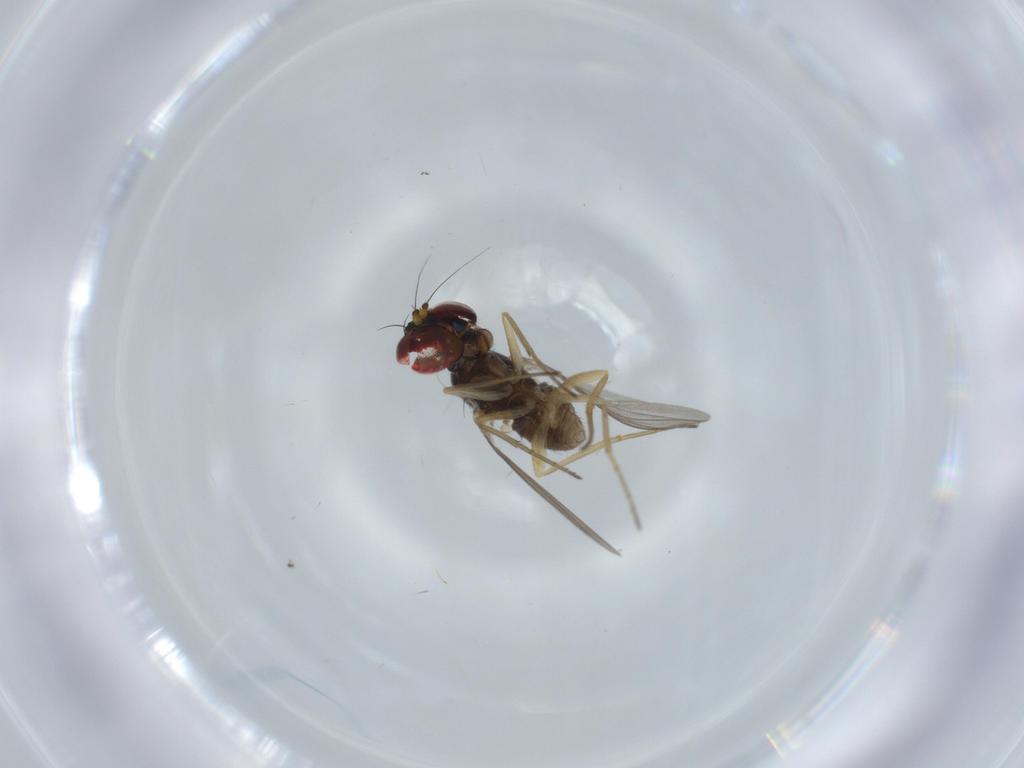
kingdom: Animalia
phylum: Arthropoda
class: Insecta
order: Diptera
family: Dolichopodidae
